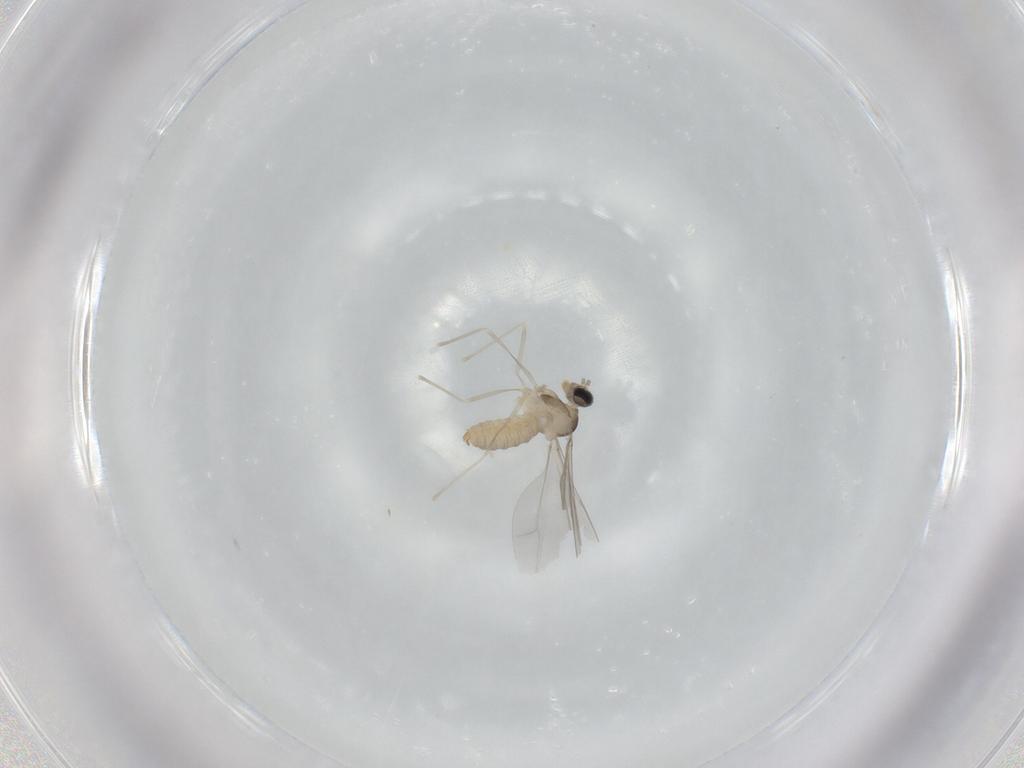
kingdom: Animalia
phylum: Arthropoda
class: Insecta
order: Diptera
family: Cecidomyiidae
